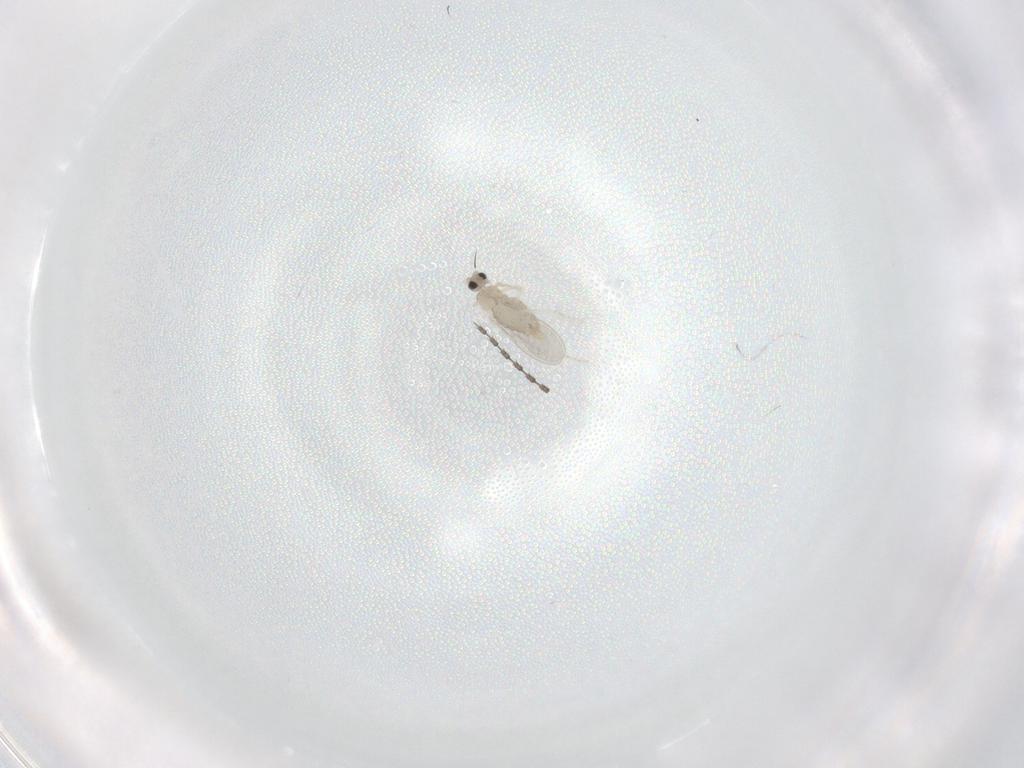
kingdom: Animalia
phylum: Arthropoda
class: Insecta
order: Diptera
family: Cecidomyiidae
